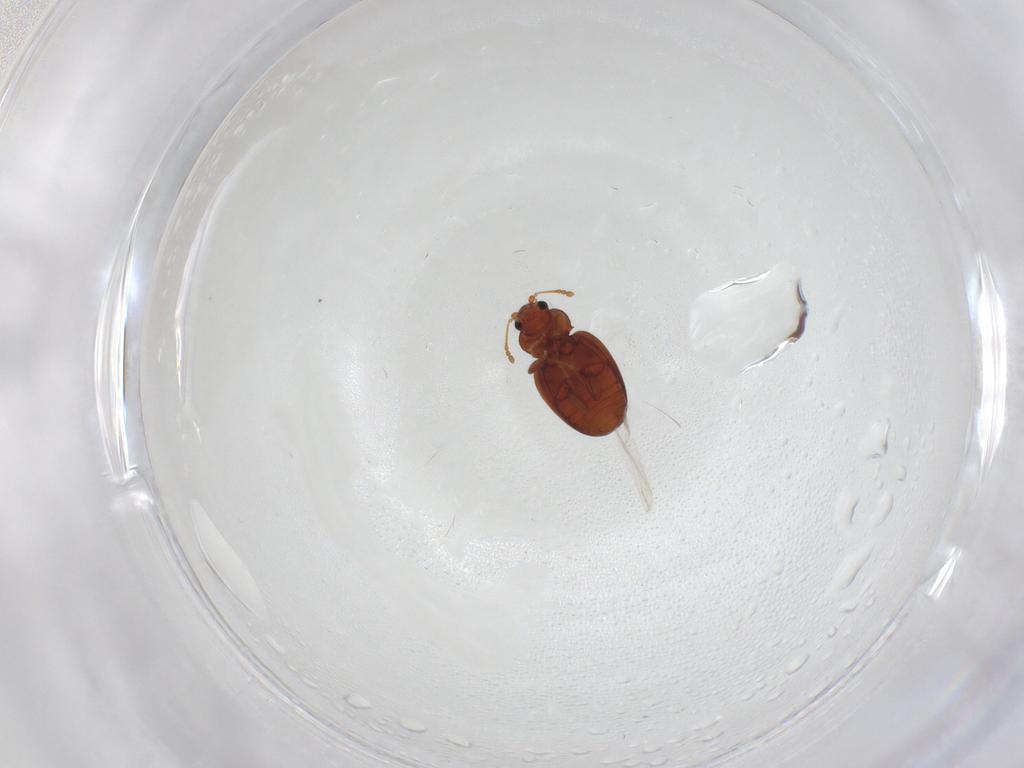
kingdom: Animalia
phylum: Arthropoda
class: Insecta
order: Coleoptera
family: Latridiidae
